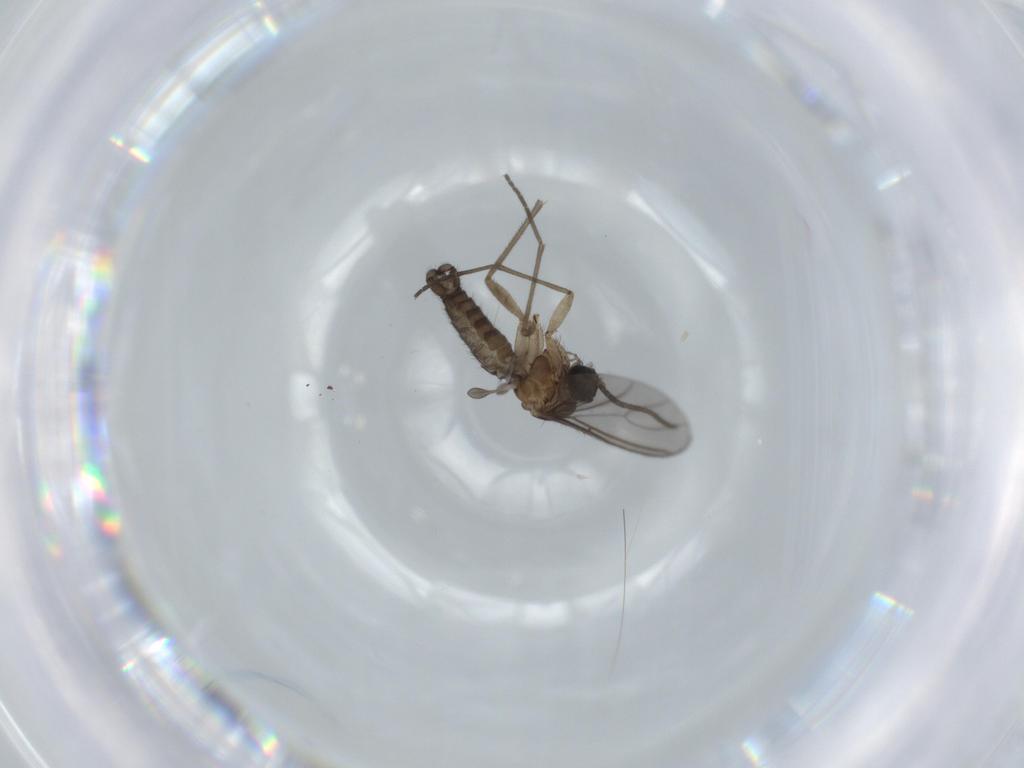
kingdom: Animalia
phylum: Arthropoda
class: Insecta
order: Diptera
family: Sciaridae
